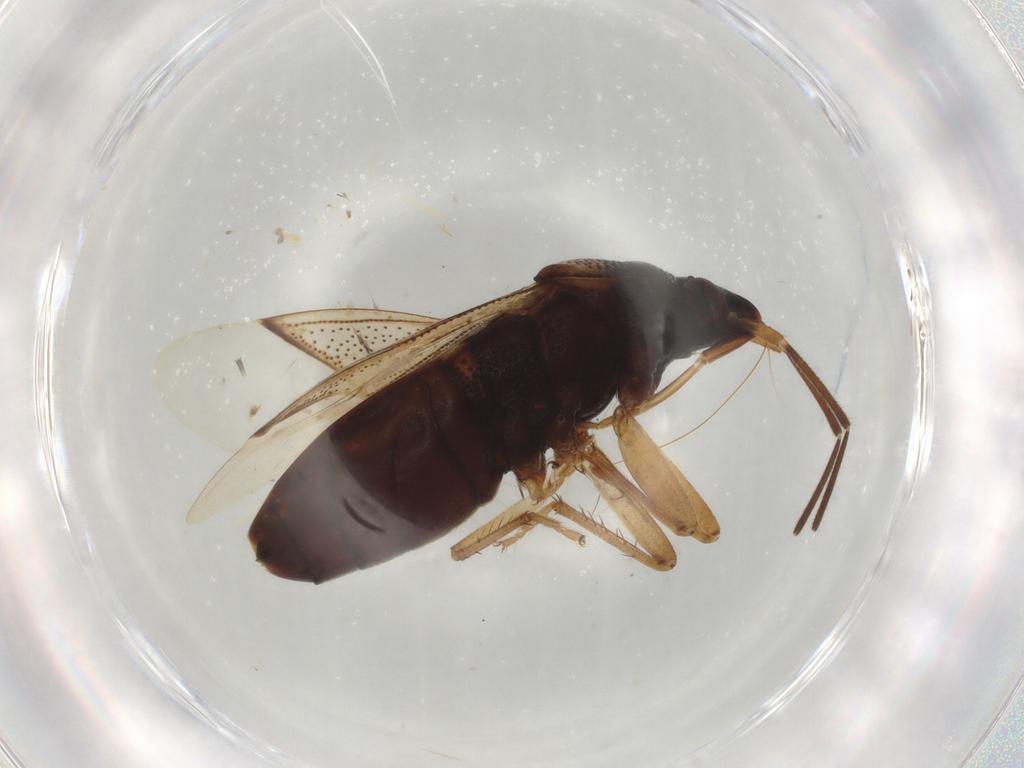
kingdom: Animalia
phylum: Arthropoda
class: Insecta
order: Hemiptera
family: Rhyparochromidae
